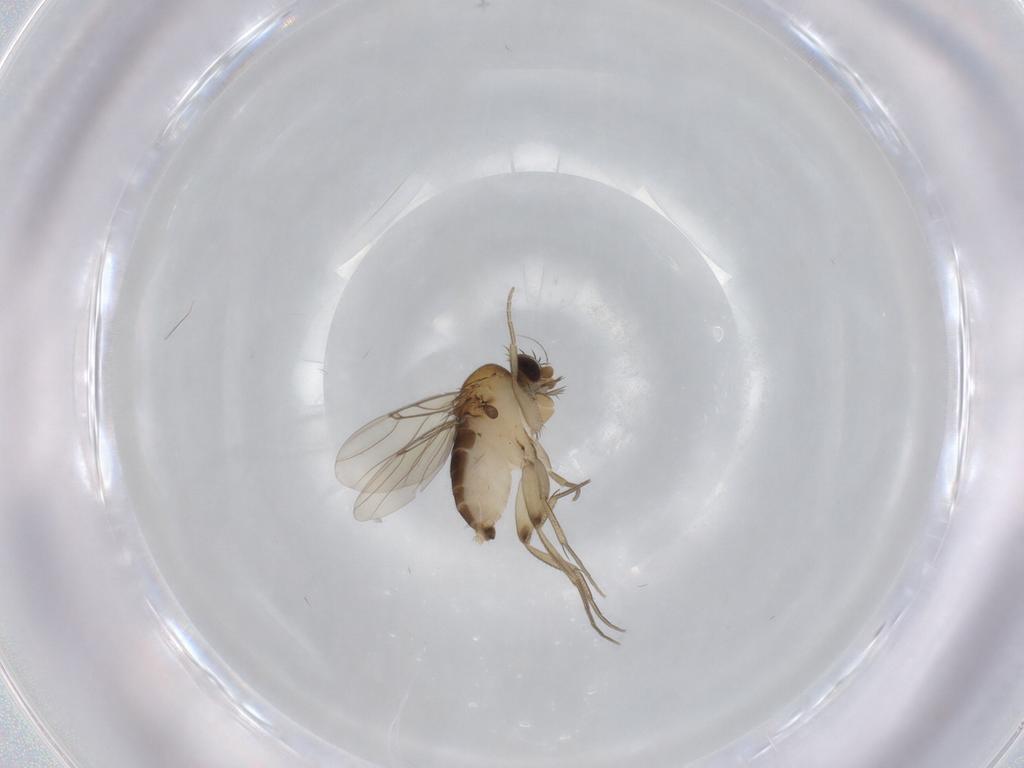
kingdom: Animalia
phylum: Arthropoda
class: Insecta
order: Diptera
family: Phoridae
